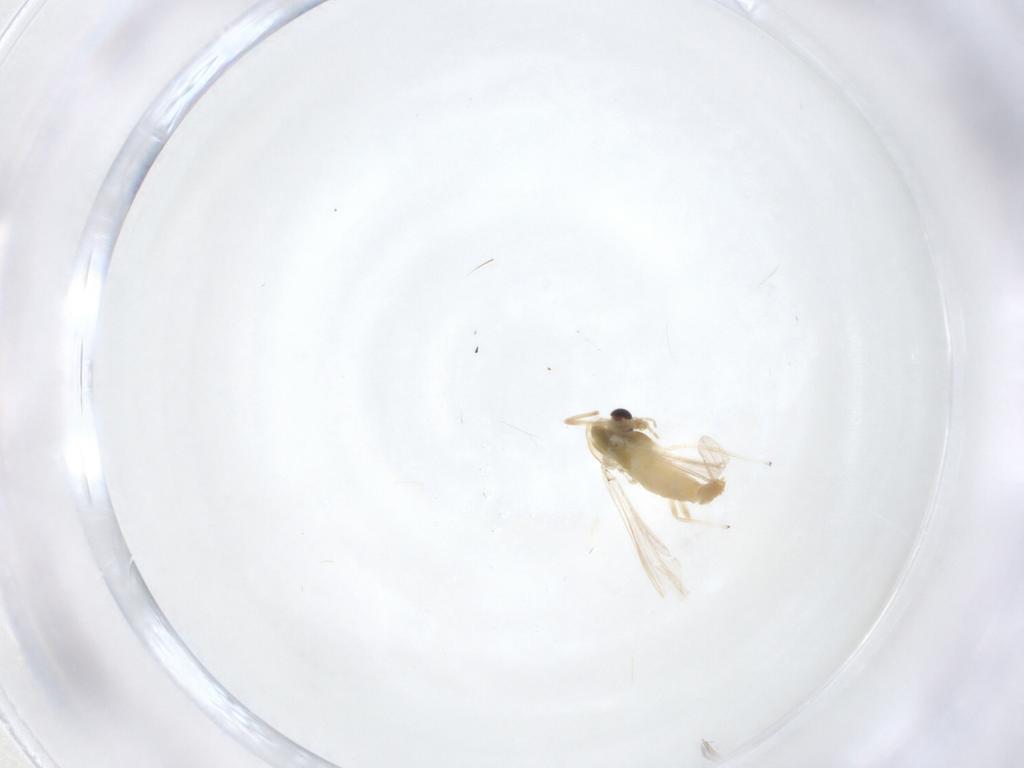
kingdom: Animalia
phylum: Arthropoda
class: Insecta
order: Diptera
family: Chironomidae
